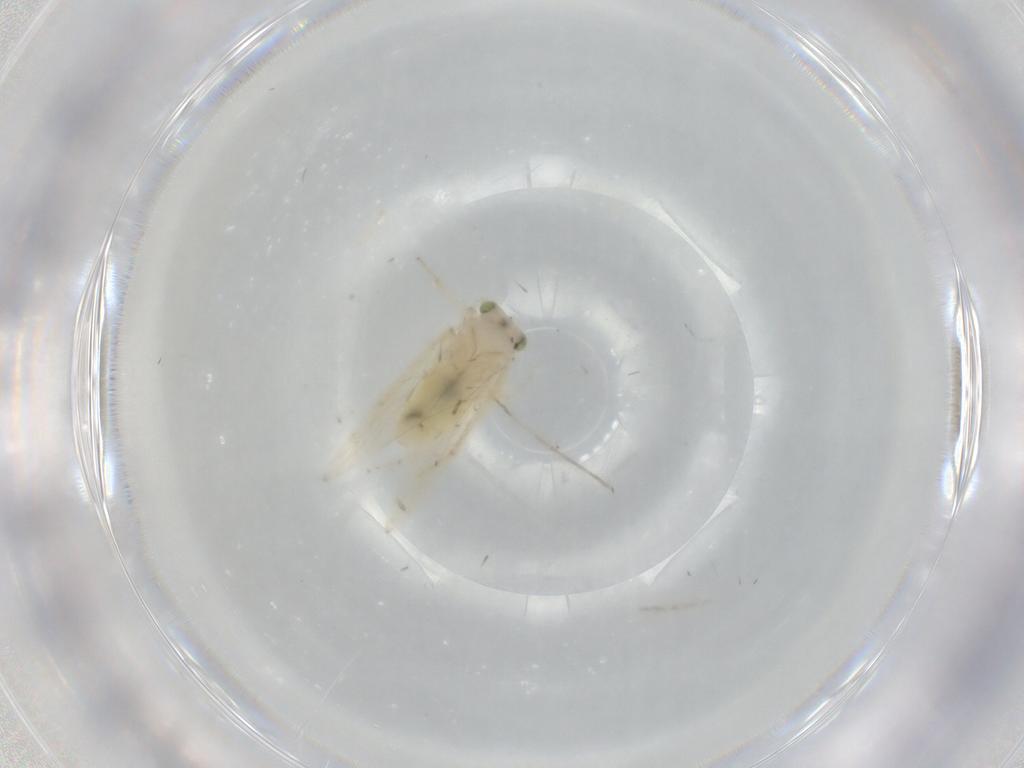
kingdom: Animalia
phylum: Arthropoda
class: Insecta
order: Psocodea
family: Lepidopsocidae
